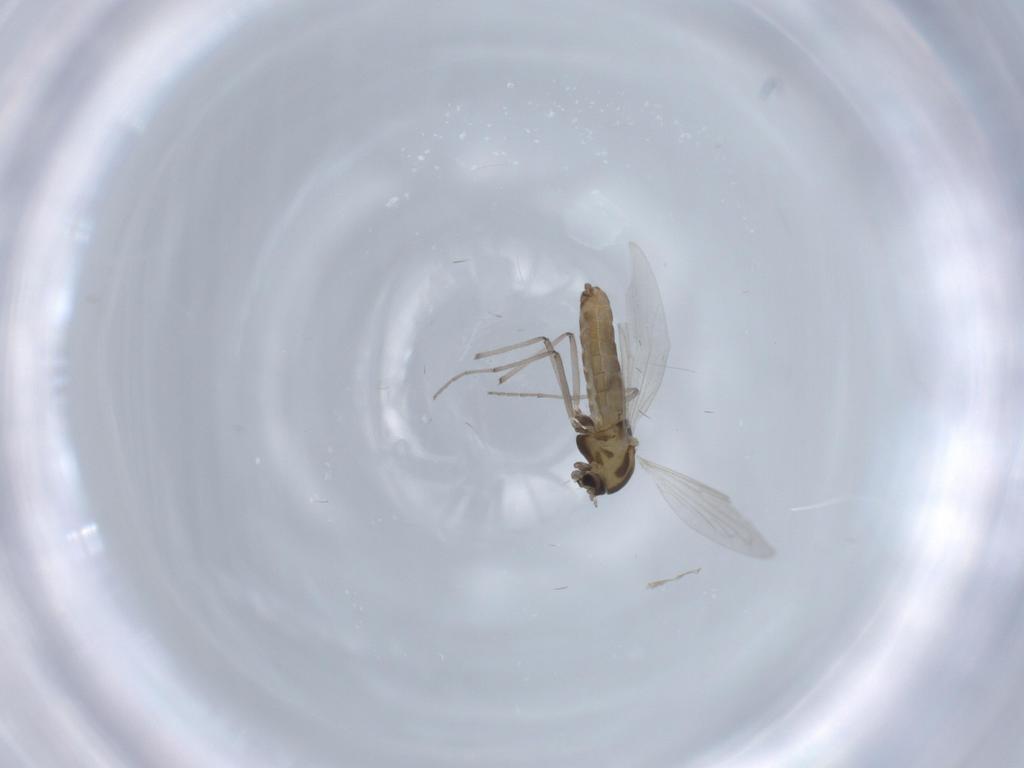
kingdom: Animalia
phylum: Arthropoda
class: Insecta
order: Diptera
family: Chironomidae
